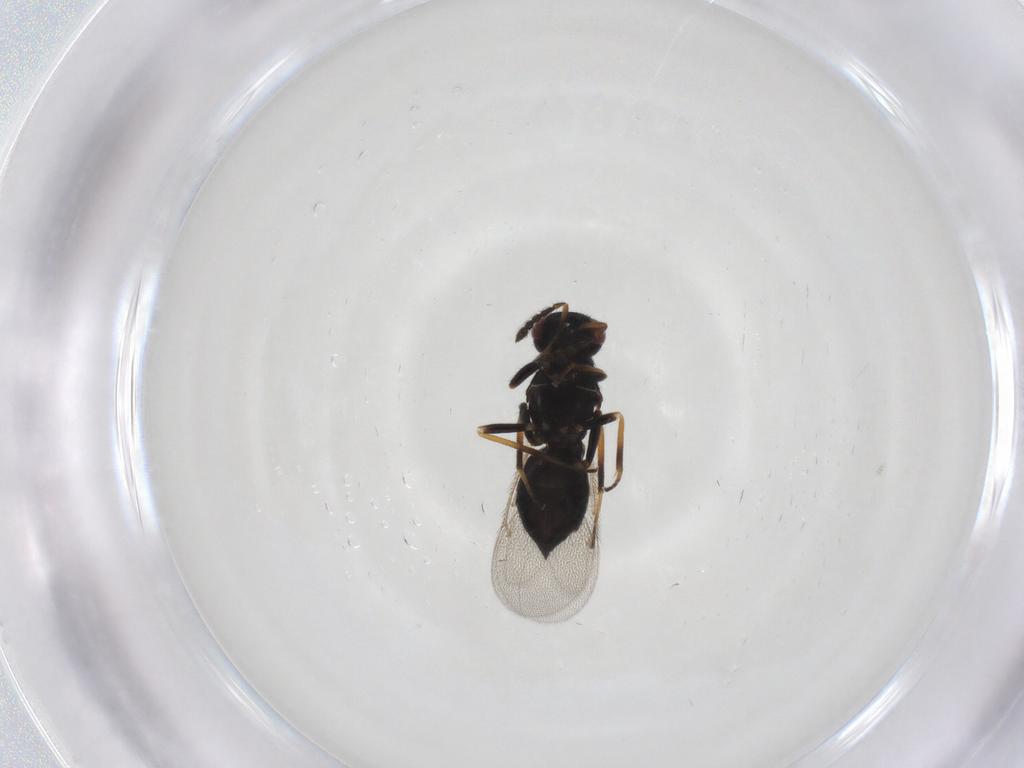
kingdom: Animalia
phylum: Arthropoda
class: Insecta
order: Hymenoptera
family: Eulophidae
